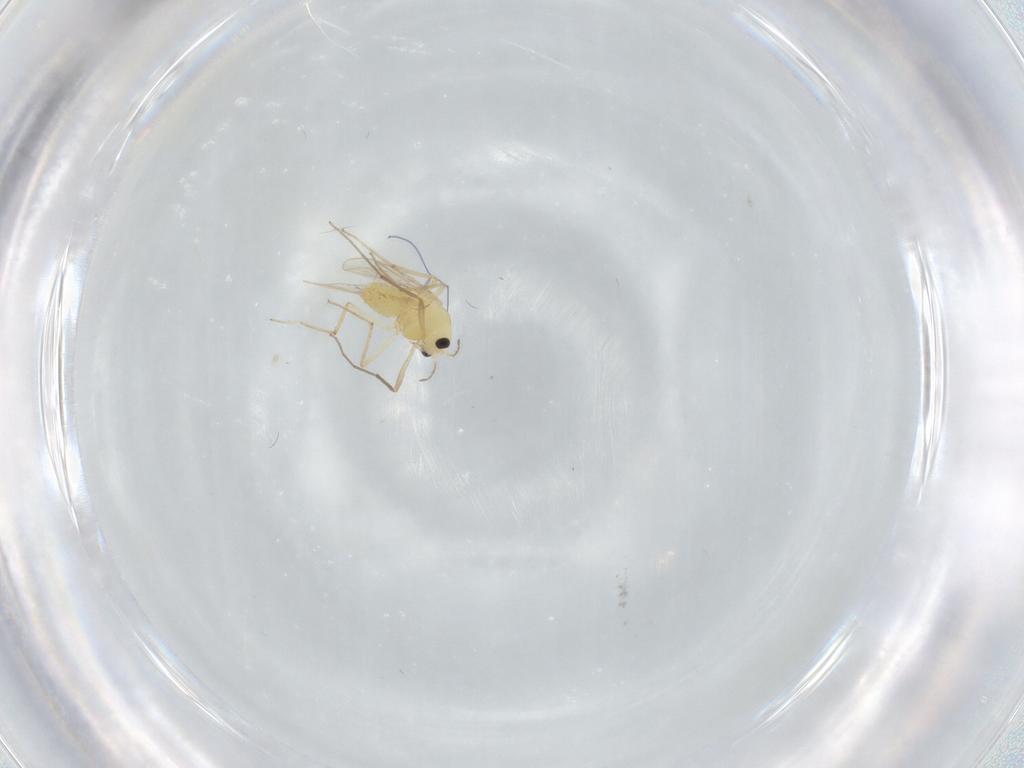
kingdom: Animalia
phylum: Arthropoda
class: Insecta
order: Diptera
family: Chironomidae
